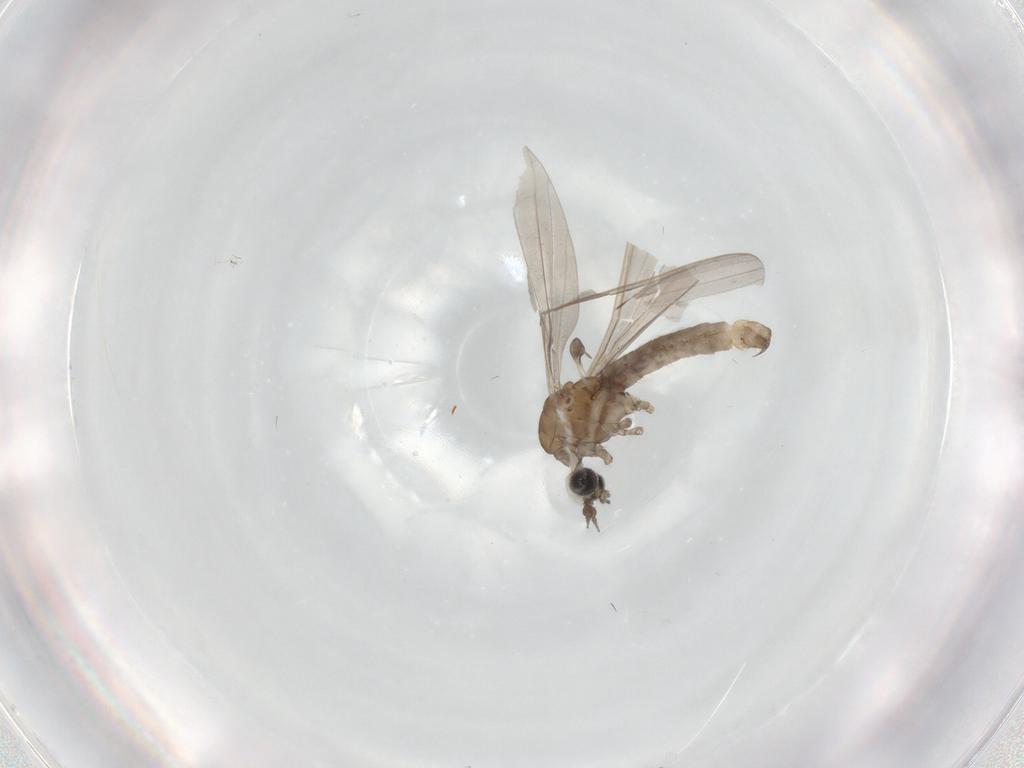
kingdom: Animalia
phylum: Arthropoda
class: Insecta
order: Diptera
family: Limoniidae
